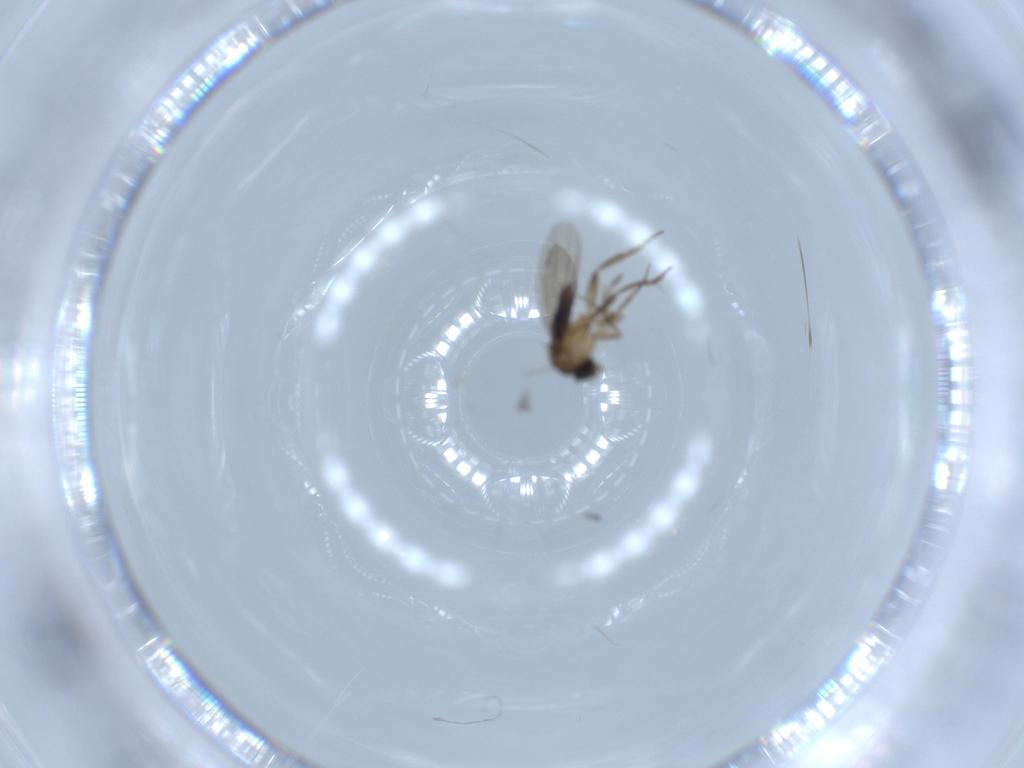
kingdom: Animalia
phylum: Arthropoda
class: Insecta
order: Diptera
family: Phoridae
